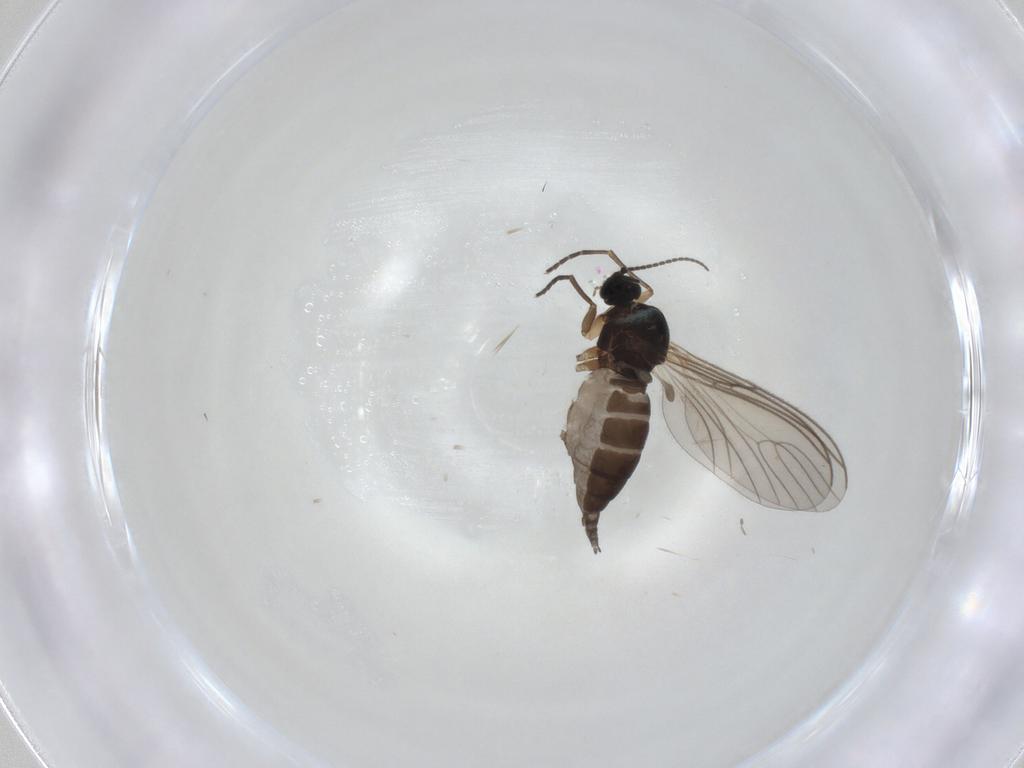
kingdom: Animalia
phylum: Arthropoda
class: Insecta
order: Diptera
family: Sciaridae
